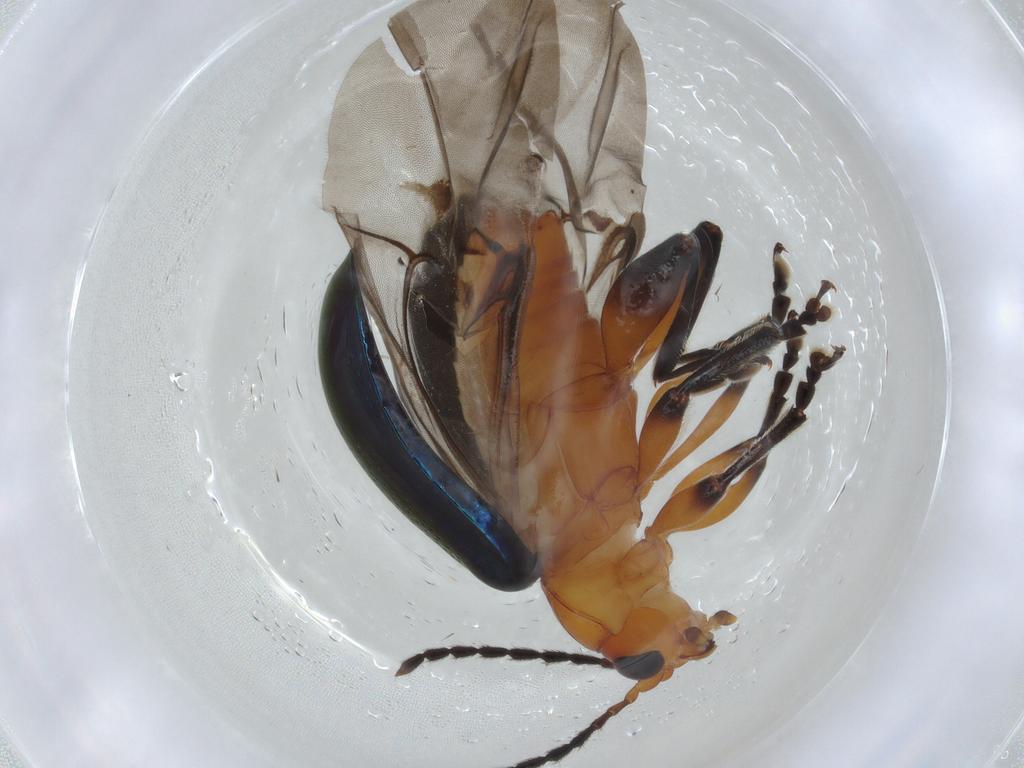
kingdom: Animalia
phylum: Arthropoda
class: Insecta
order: Coleoptera
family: Chrysomelidae
